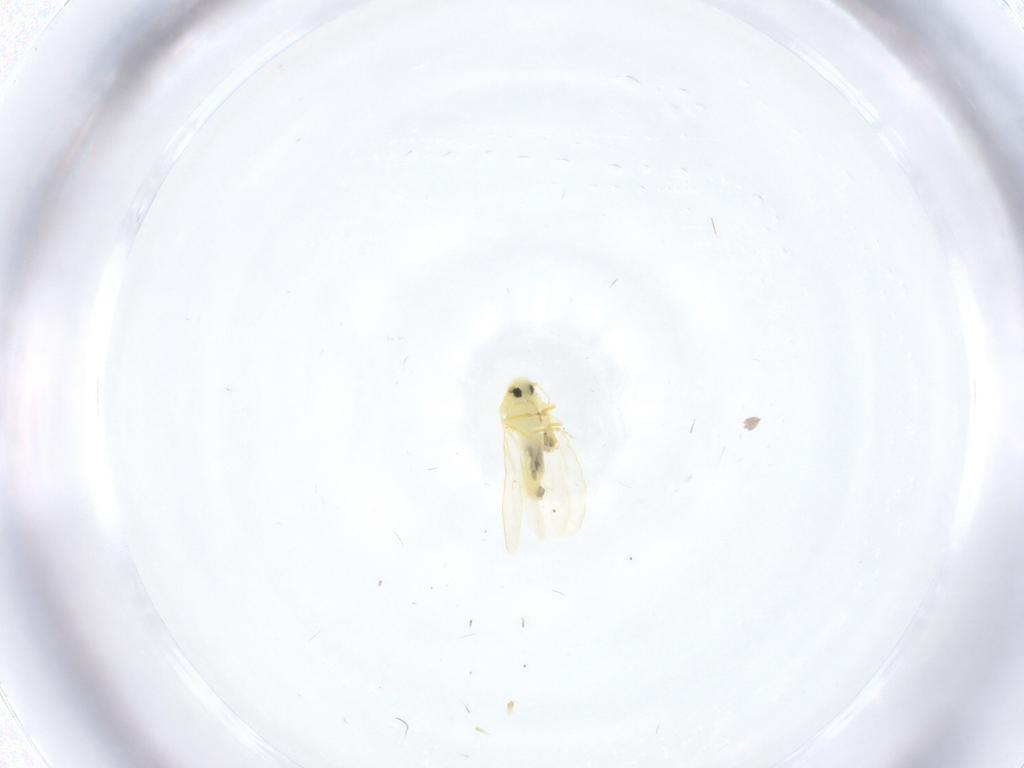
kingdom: Animalia
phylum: Arthropoda
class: Insecta
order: Hemiptera
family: Aleyrodidae
